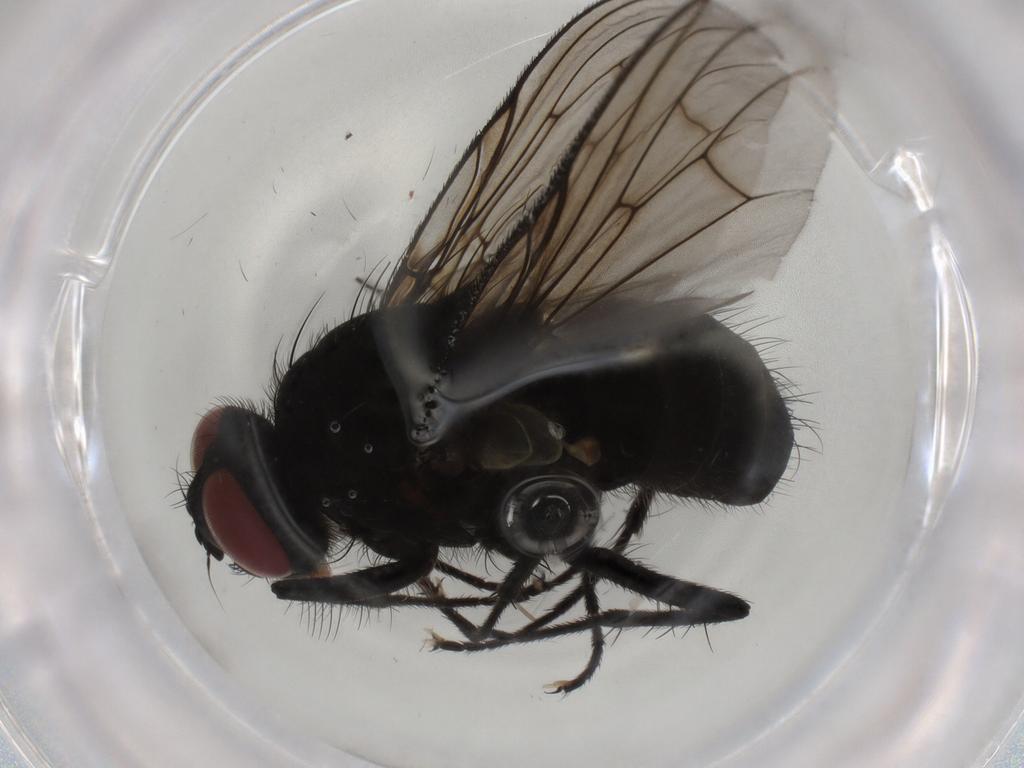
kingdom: Animalia
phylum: Arthropoda
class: Insecta
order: Diptera
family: Muscidae
